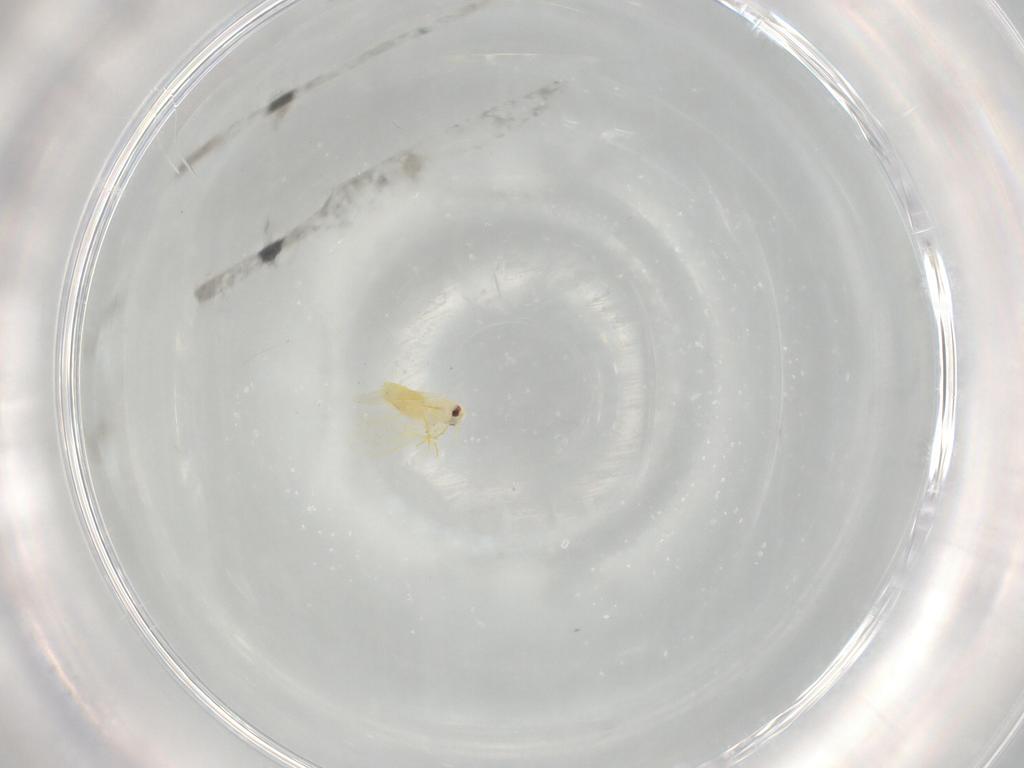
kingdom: Animalia
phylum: Arthropoda
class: Insecta
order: Hemiptera
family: Aleyrodidae
